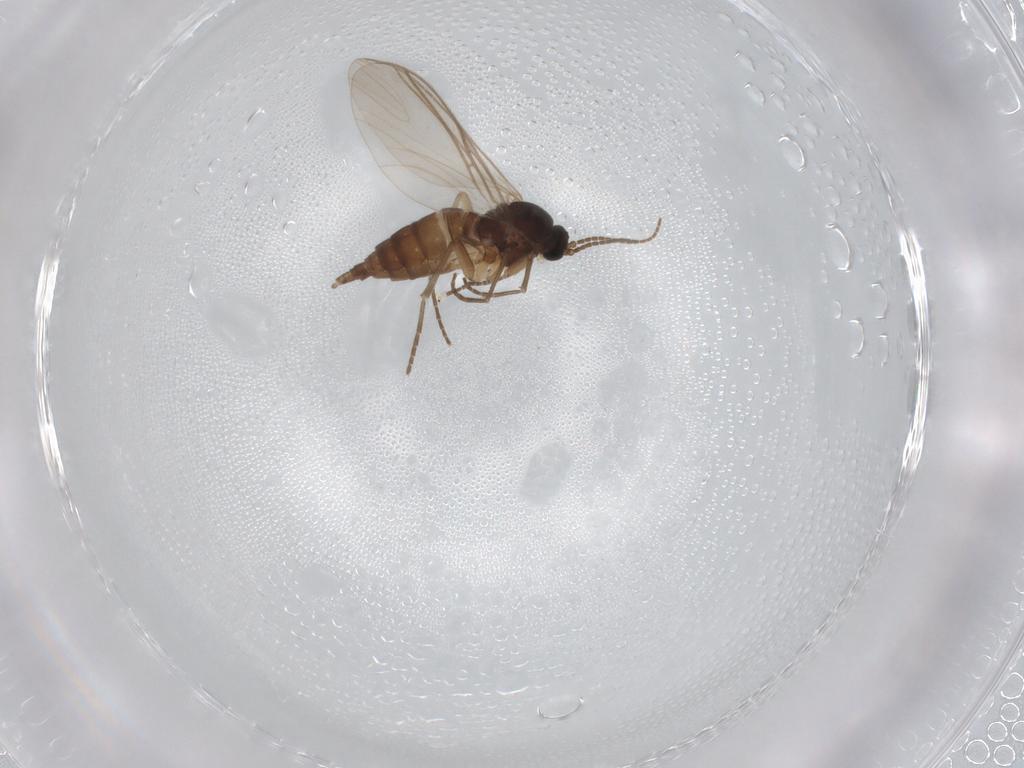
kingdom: Animalia
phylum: Arthropoda
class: Insecta
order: Diptera
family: Sciaridae
